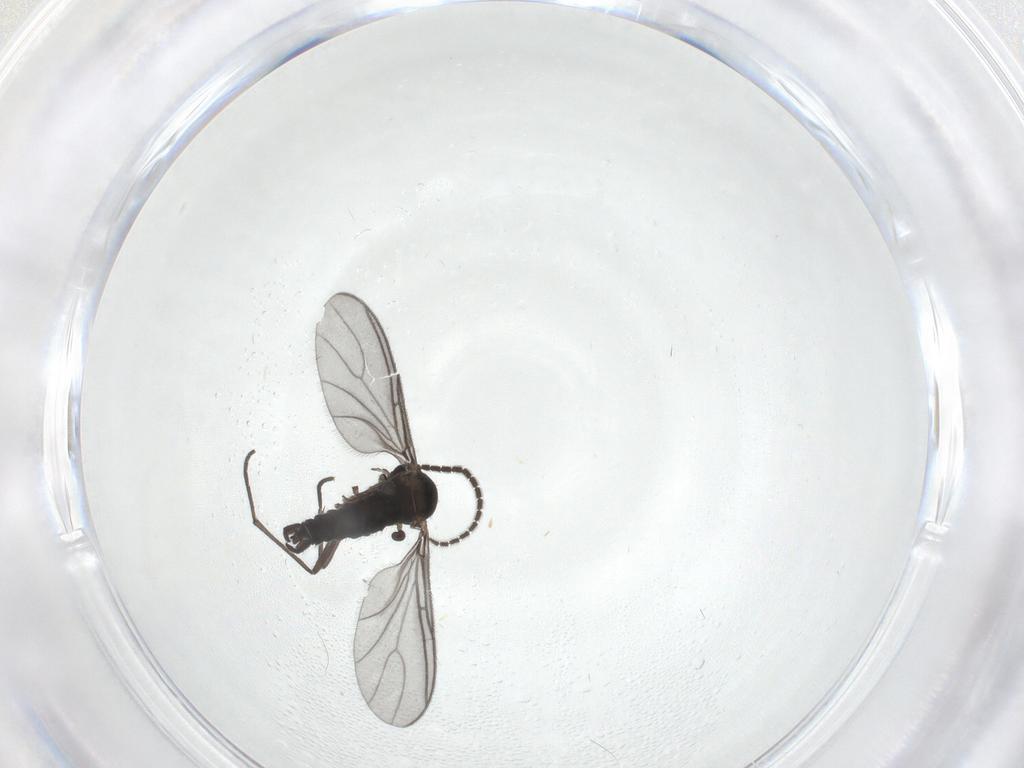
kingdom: Animalia
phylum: Arthropoda
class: Insecta
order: Diptera
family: Sciaridae
